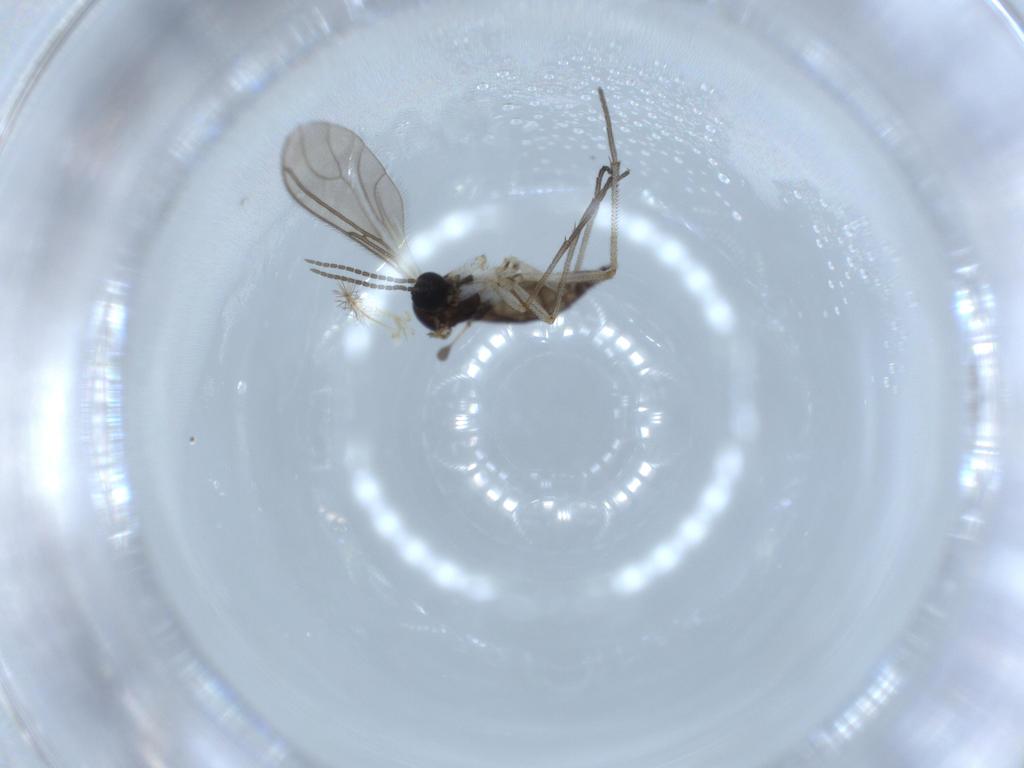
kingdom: Animalia
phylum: Arthropoda
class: Insecta
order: Diptera
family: Sciaridae
